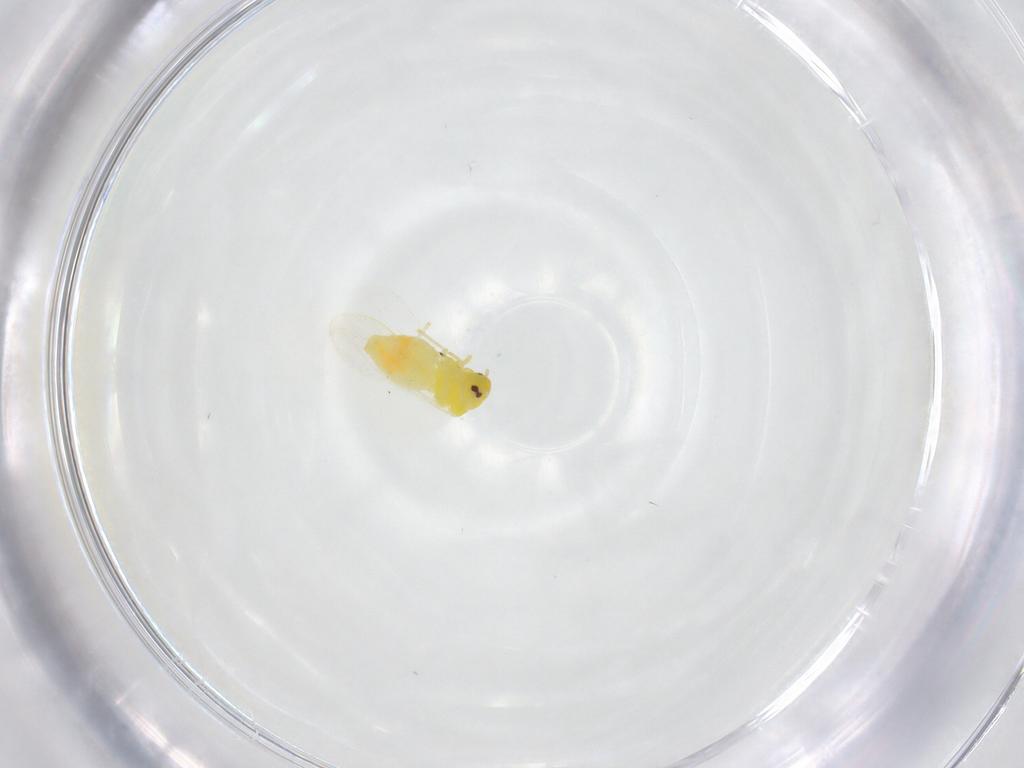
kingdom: Animalia
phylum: Arthropoda
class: Insecta
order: Hemiptera
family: Aleyrodidae
